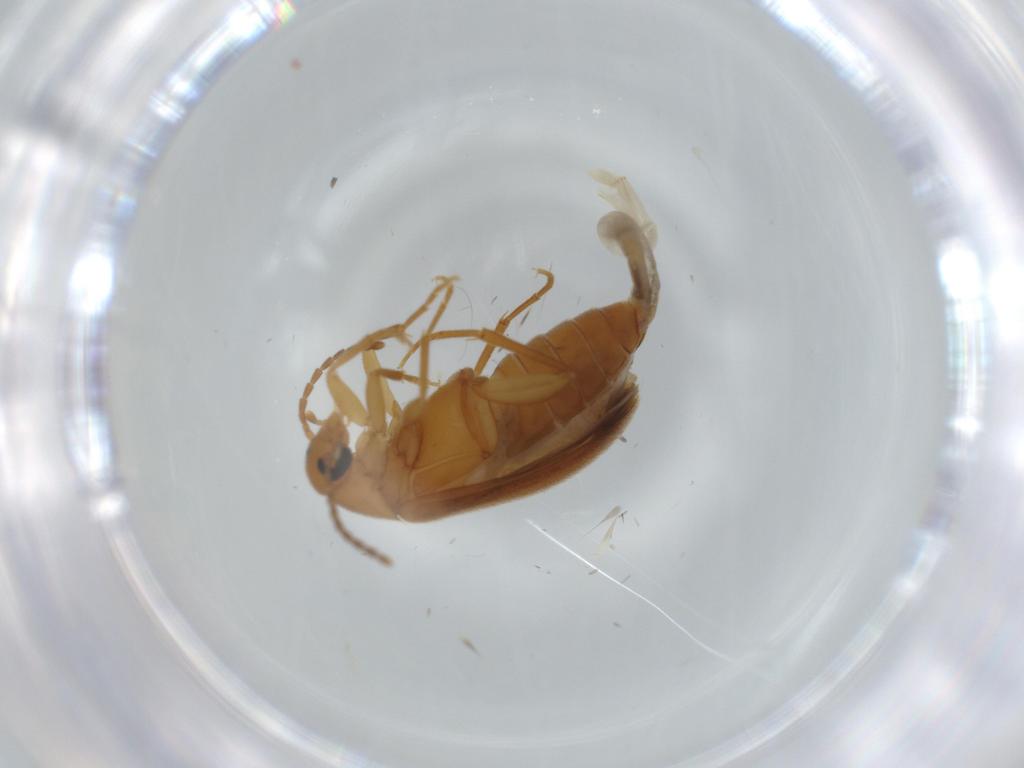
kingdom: Animalia
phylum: Arthropoda
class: Insecta
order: Coleoptera
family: Scraptiidae
